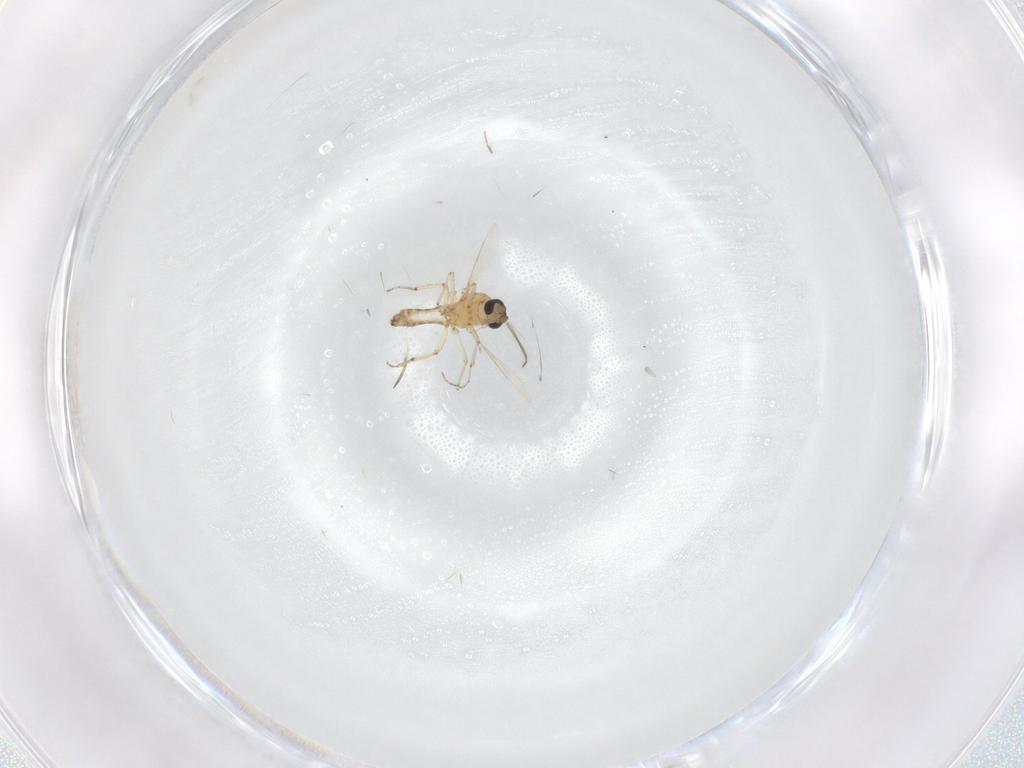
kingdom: Animalia
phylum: Arthropoda
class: Insecta
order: Diptera
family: Ceratopogonidae
